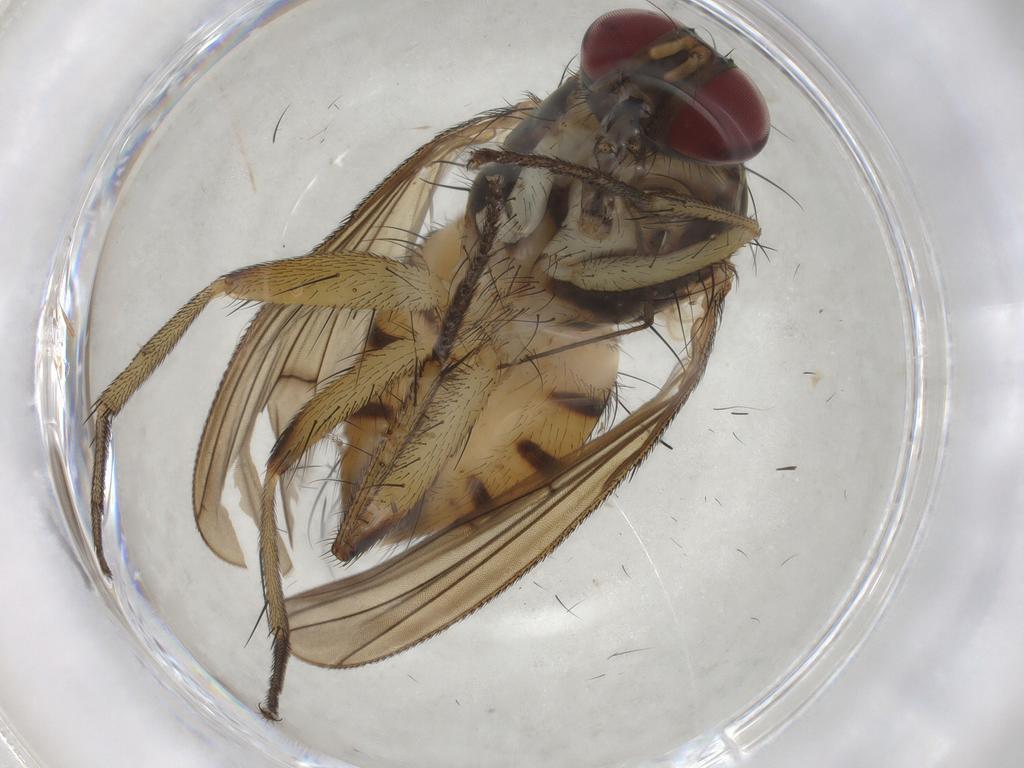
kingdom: Animalia
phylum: Arthropoda
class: Insecta
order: Diptera
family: Muscidae
